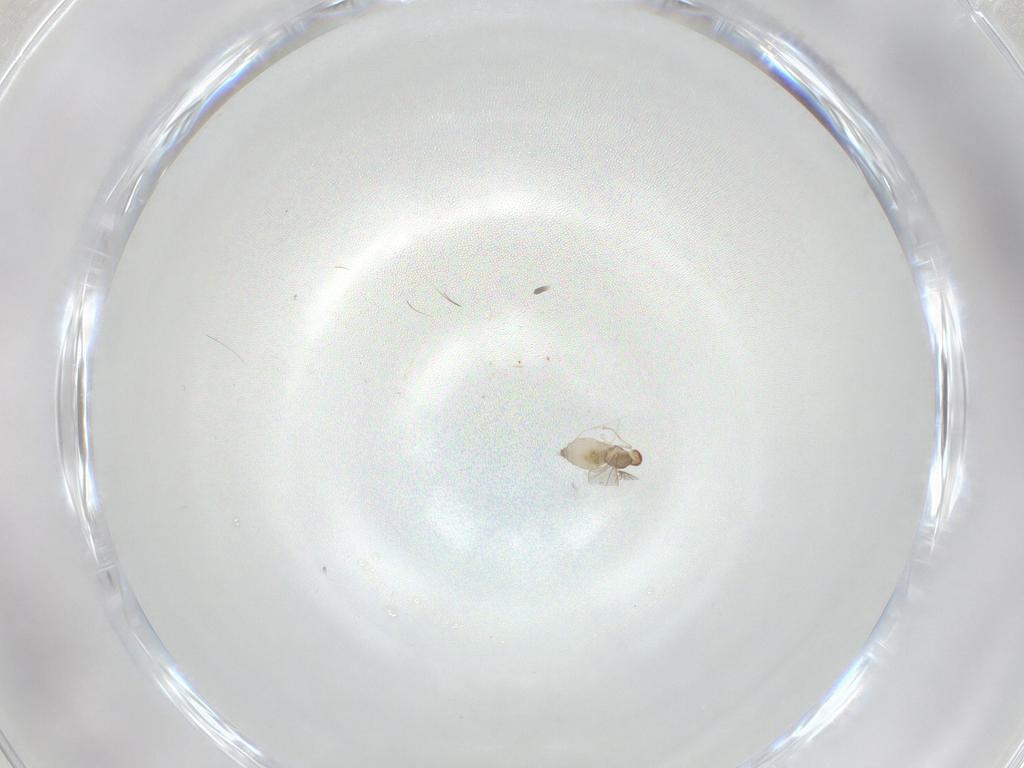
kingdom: Animalia
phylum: Arthropoda
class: Insecta
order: Diptera
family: Cecidomyiidae
